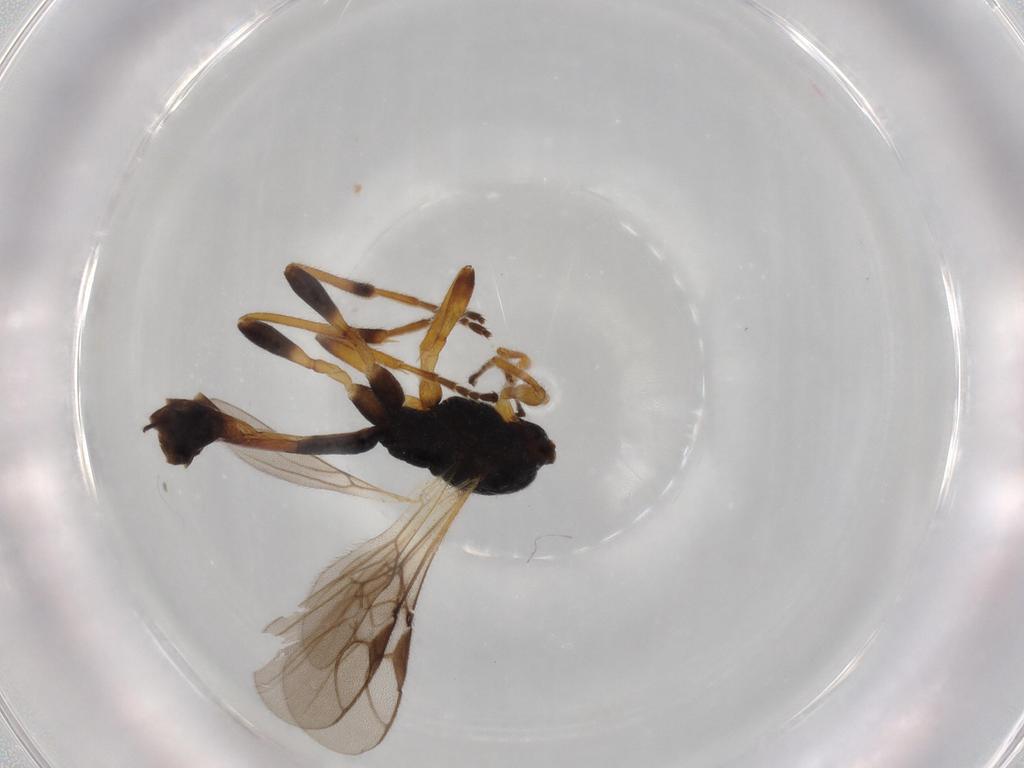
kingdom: Animalia
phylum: Arthropoda
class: Insecta
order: Hymenoptera
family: Braconidae
